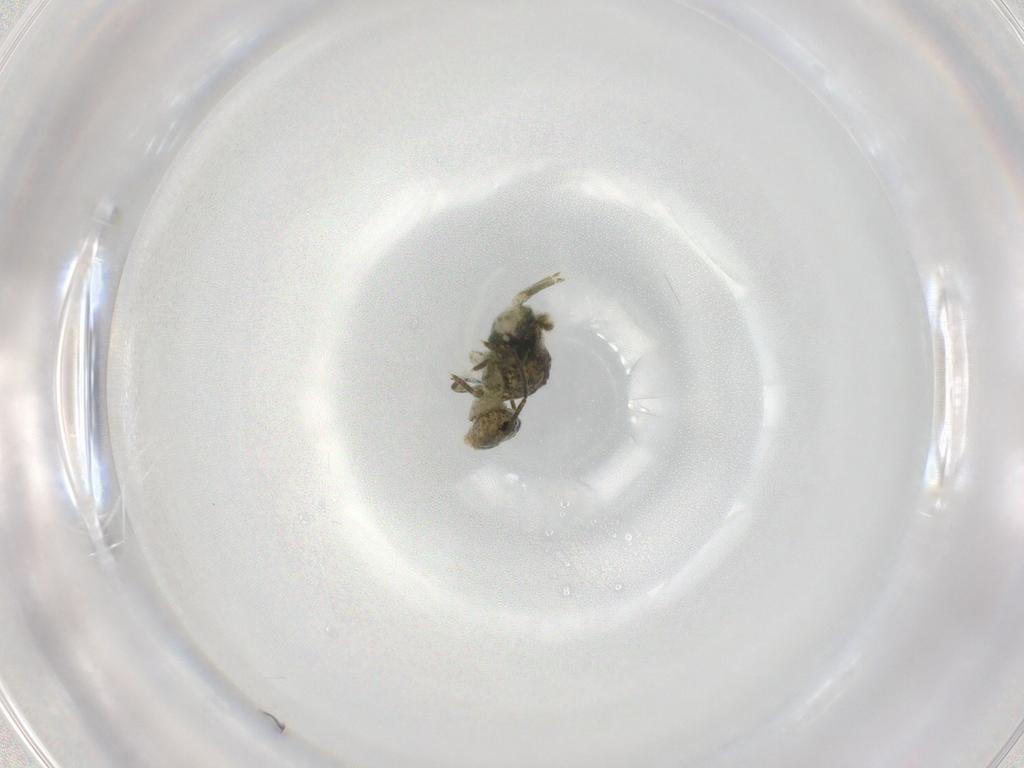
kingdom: Animalia
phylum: Arthropoda
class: Collembola
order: Symphypleona
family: Sminthuridae
